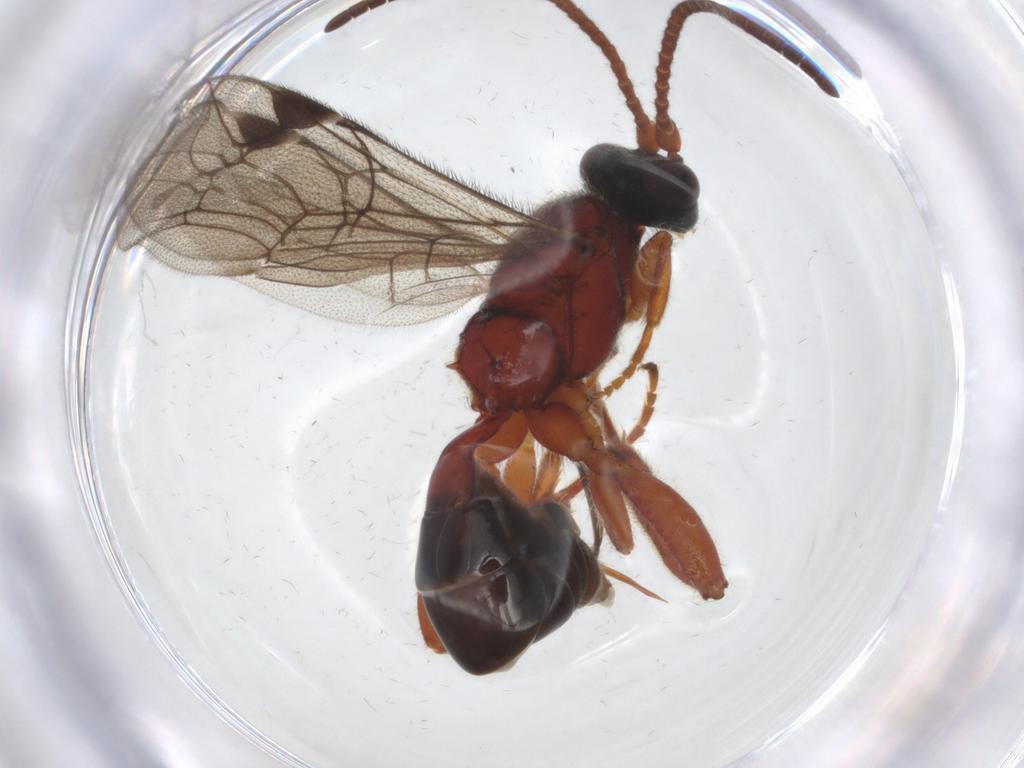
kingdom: Animalia
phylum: Arthropoda
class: Insecta
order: Hymenoptera
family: Ichneumonidae
